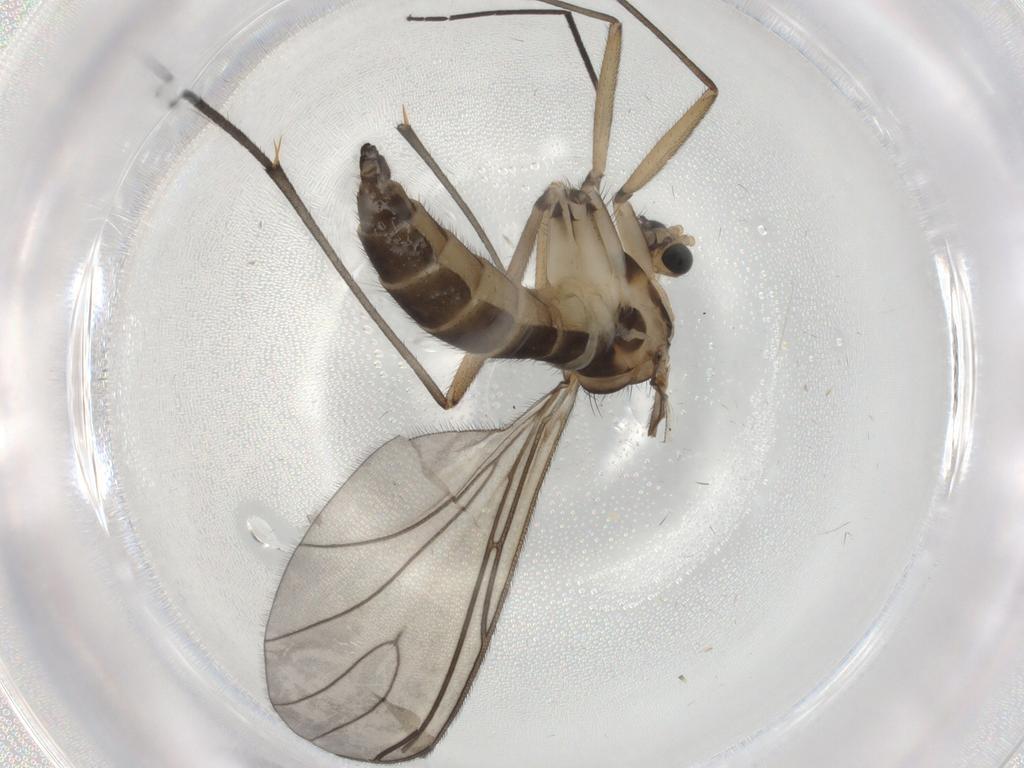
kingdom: Animalia
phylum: Arthropoda
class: Insecta
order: Diptera
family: Sciaridae
